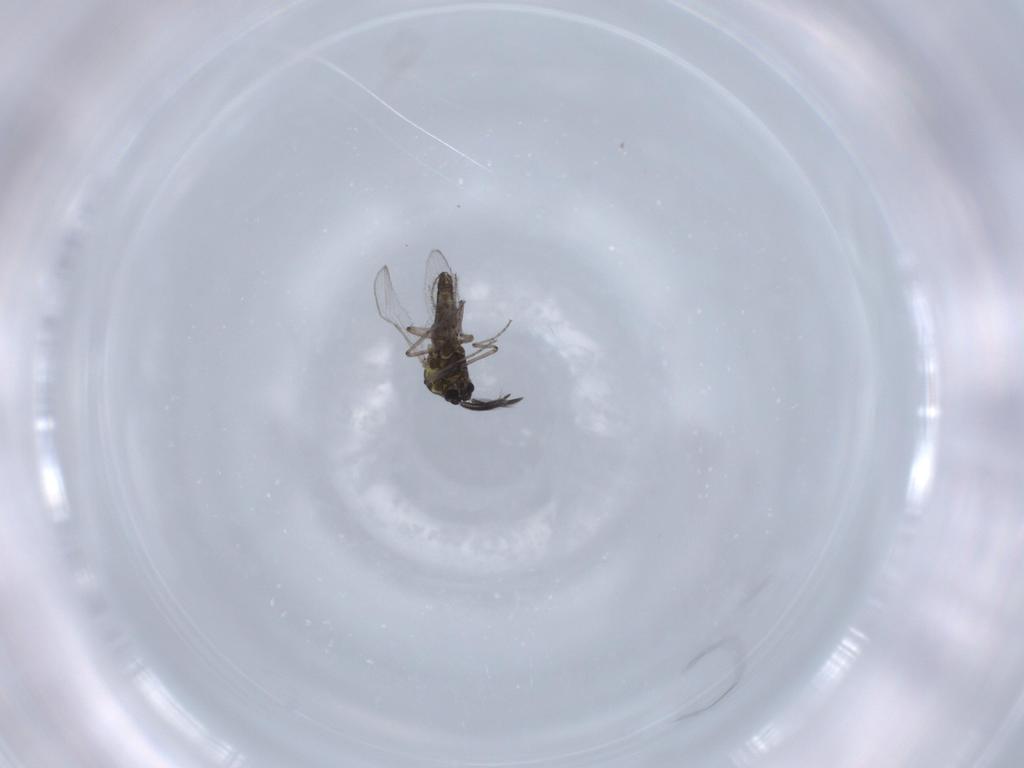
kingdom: Animalia
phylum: Arthropoda
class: Insecta
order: Diptera
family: Ceratopogonidae
